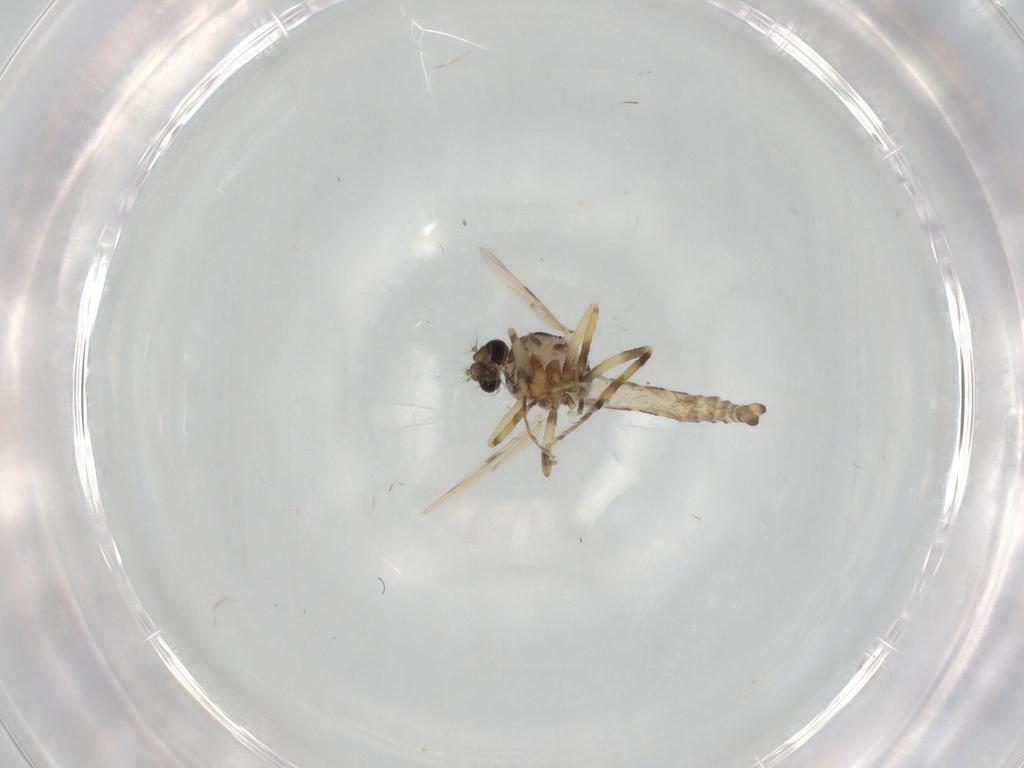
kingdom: Animalia
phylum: Arthropoda
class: Insecta
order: Diptera
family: Ceratopogonidae
